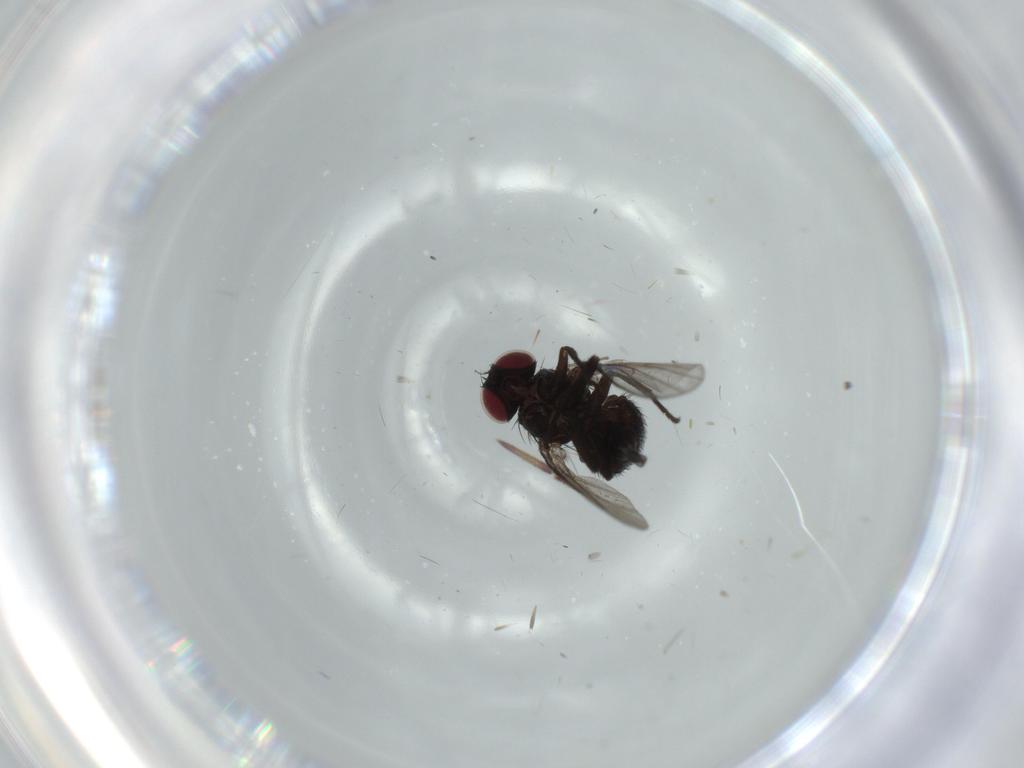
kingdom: Animalia
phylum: Arthropoda
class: Insecta
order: Diptera
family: Agromyzidae
